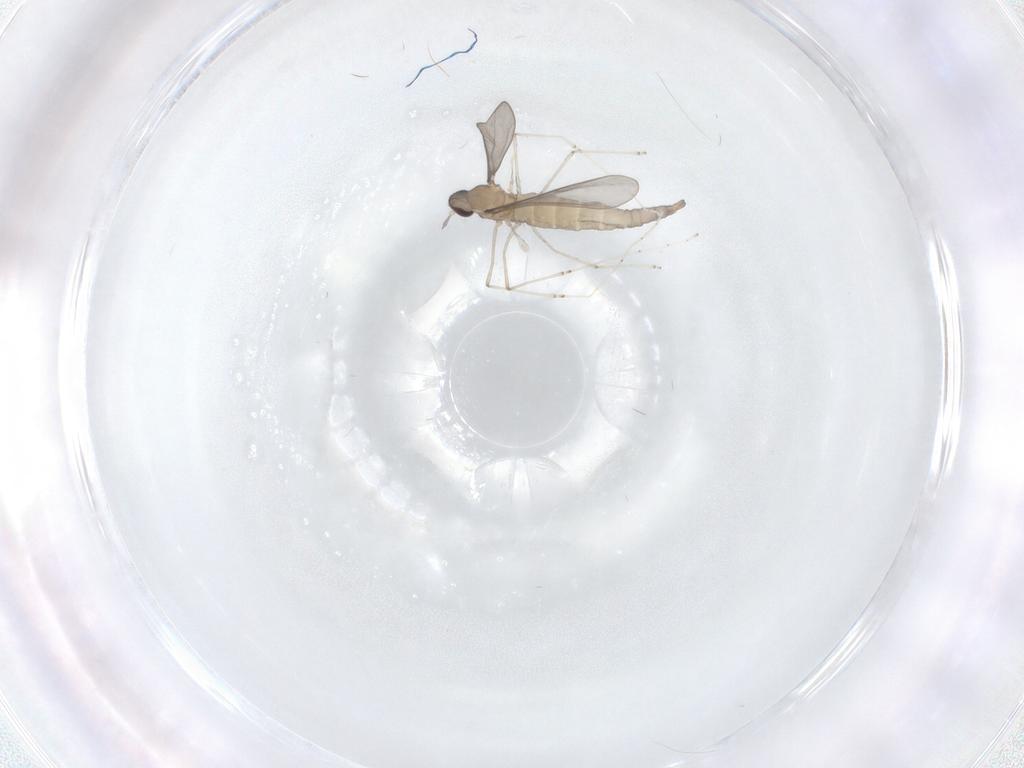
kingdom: Animalia
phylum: Arthropoda
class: Insecta
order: Diptera
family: Cecidomyiidae
